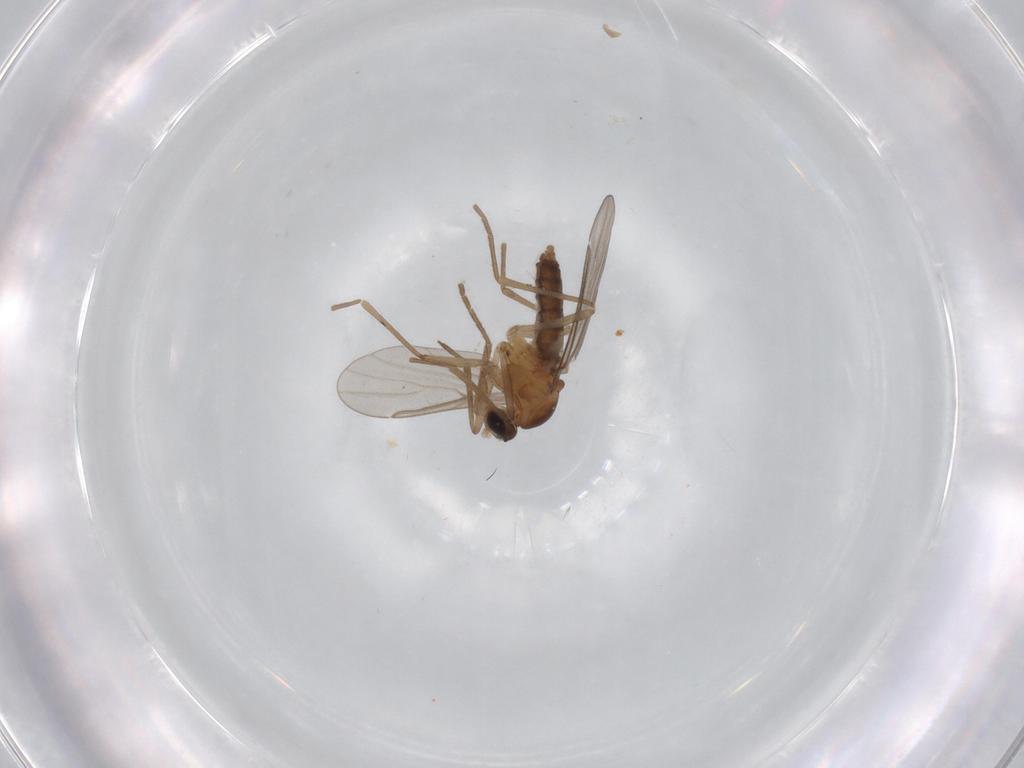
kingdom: Animalia
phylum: Arthropoda
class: Insecta
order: Diptera
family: Cecidomyiidae
